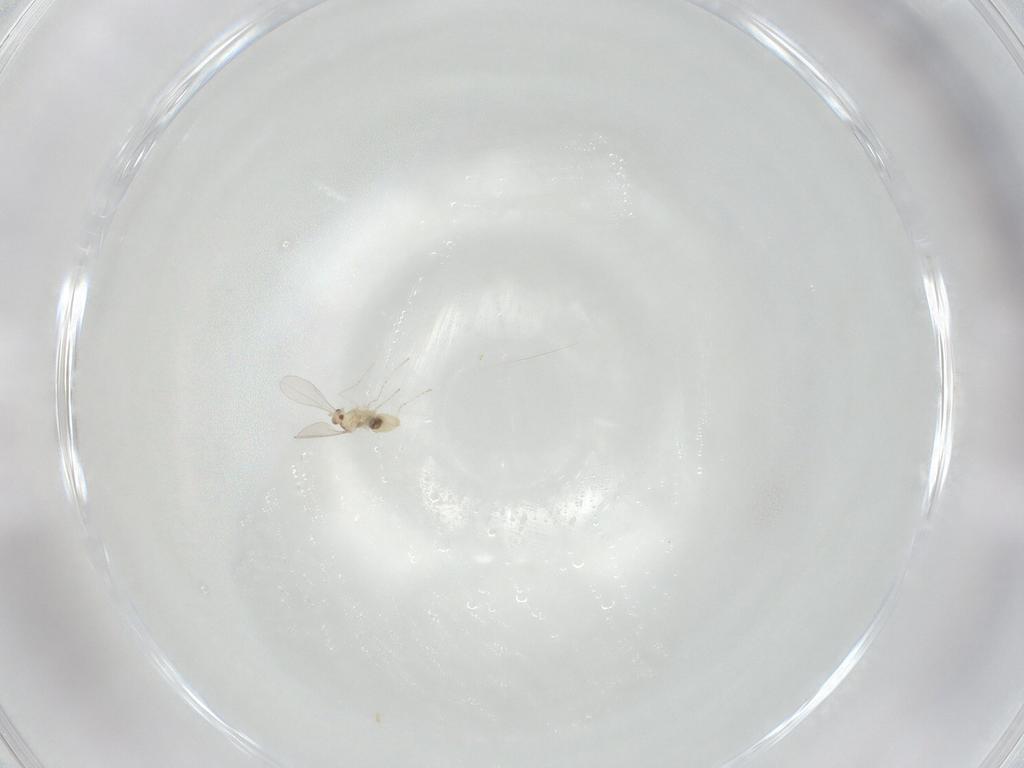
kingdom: Animalia
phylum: Arthropoda
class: Insecta
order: Diptera
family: Cecidomyiidae
